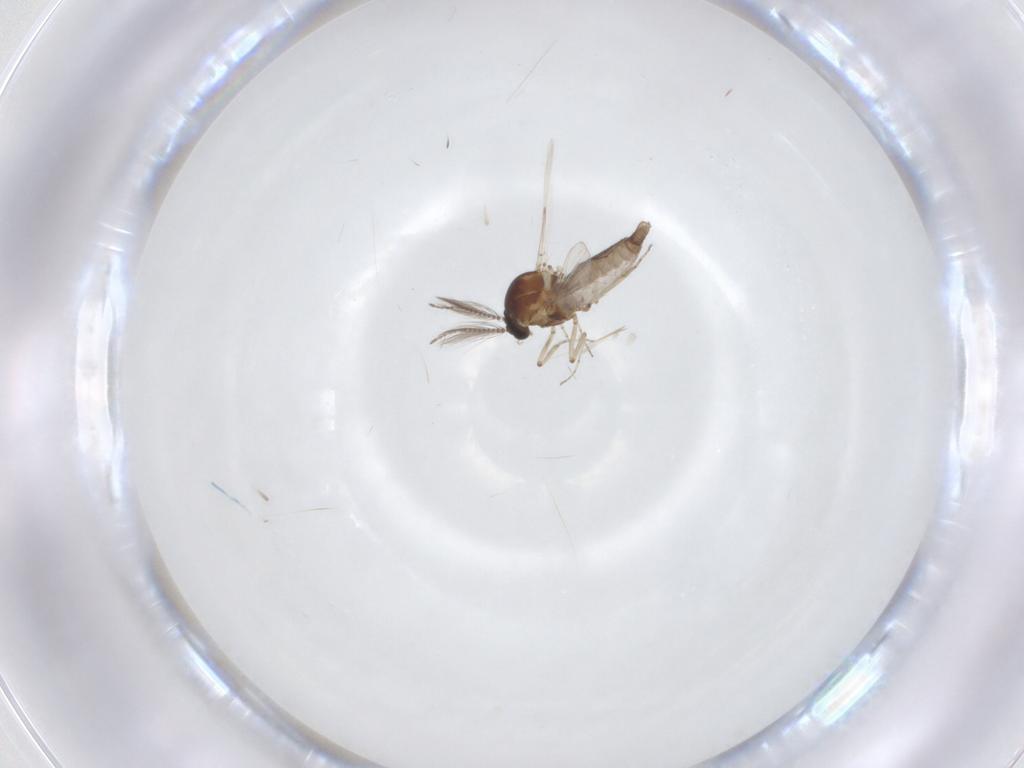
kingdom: Animalia
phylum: Arthropoda
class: Insecta
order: Diptera
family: Ceratopogonidae
